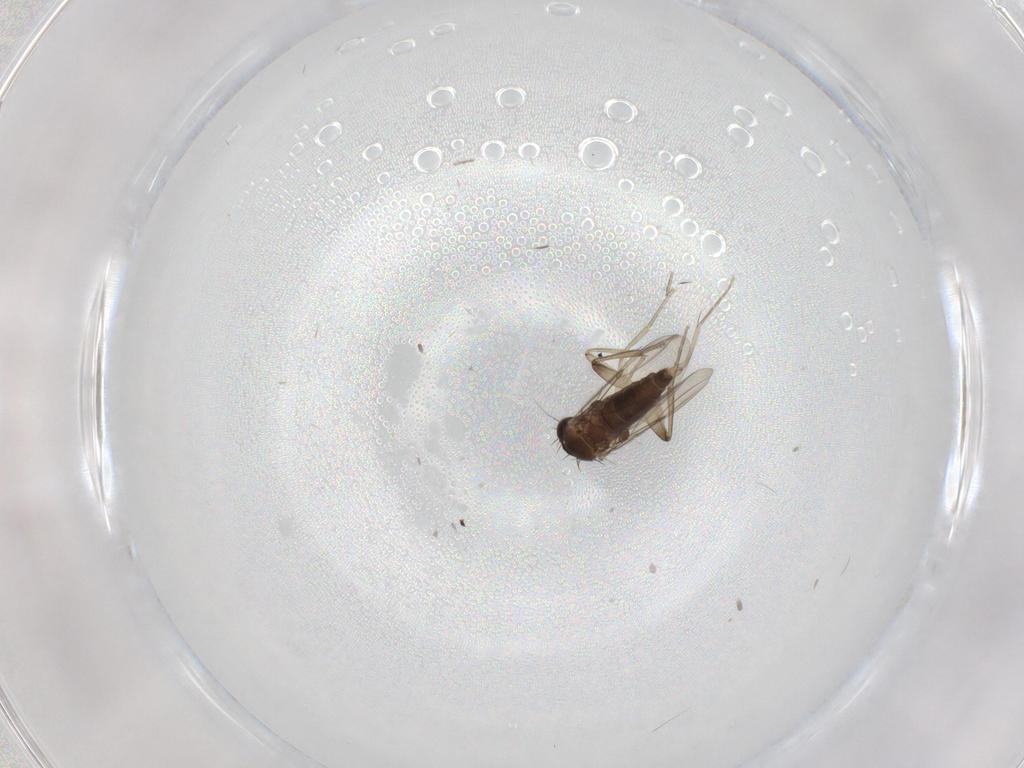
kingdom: Animalia
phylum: Arthropoda
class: Insecta
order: Diptera
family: Phoridae
